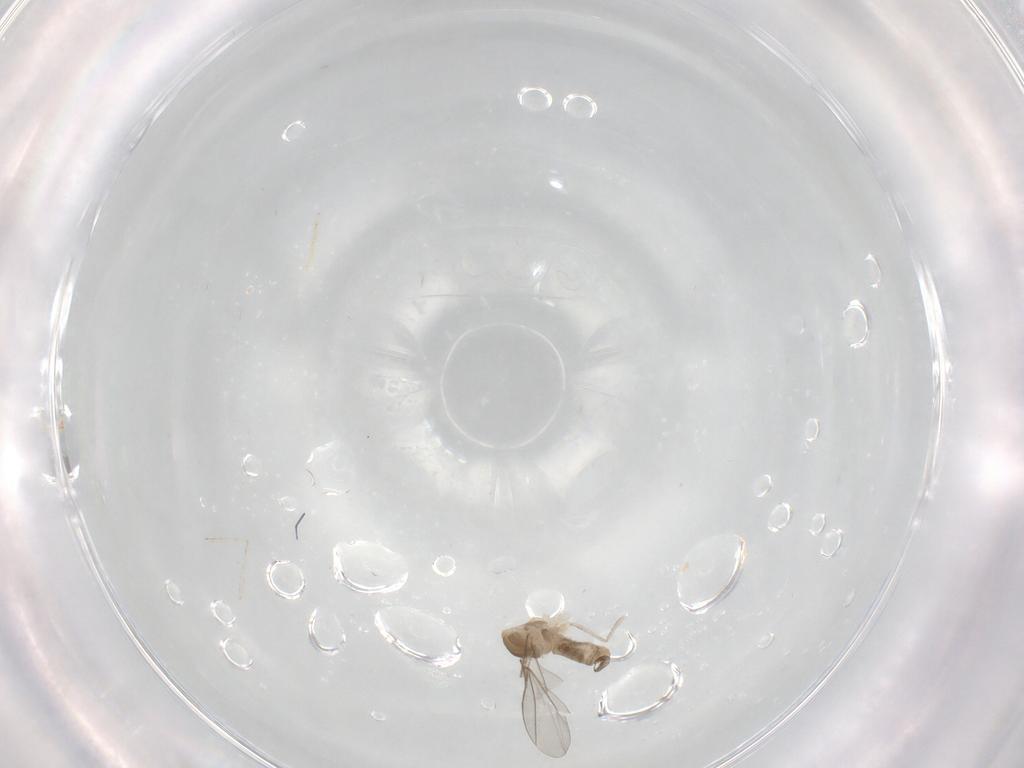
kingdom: Animalia
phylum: Arthropoda
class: Insecta
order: Diptera
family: Cecidomyiidae
